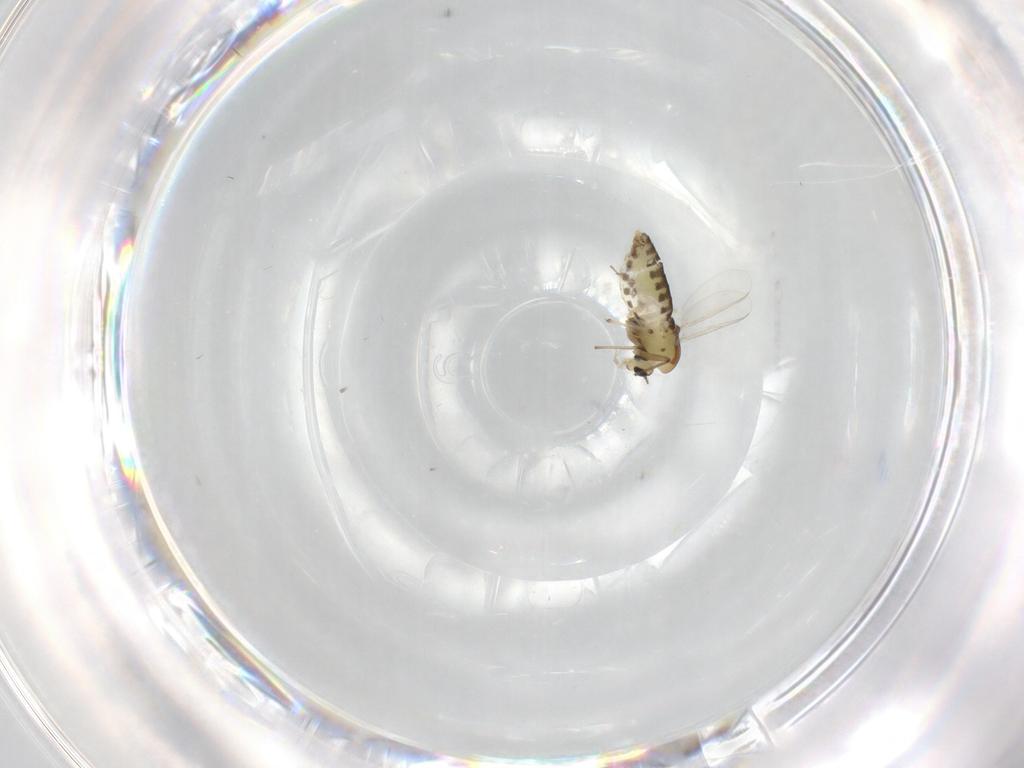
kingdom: Animalia
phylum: Arthropoda
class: Insecta
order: Diptera
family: Chironomidae
